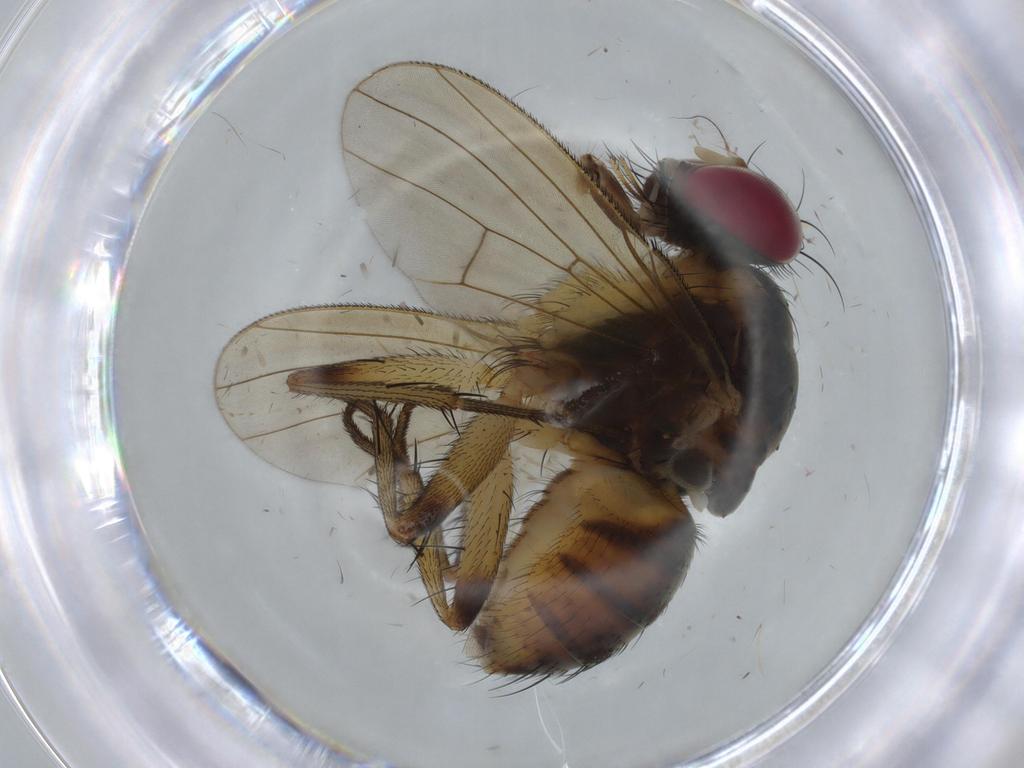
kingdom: Animalia
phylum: Arthropoda
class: Insecta
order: Diptera
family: Muscidae
